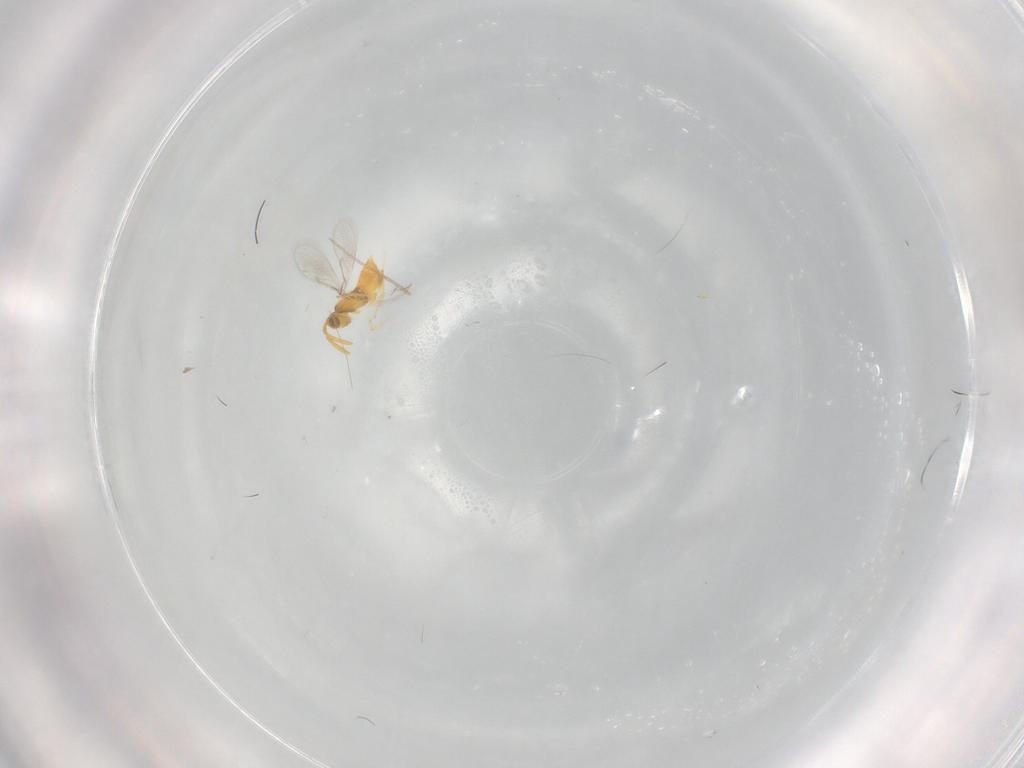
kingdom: Animalia
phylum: Arthropoda
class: Insecta
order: Hymenoptera
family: Aphelinidae
